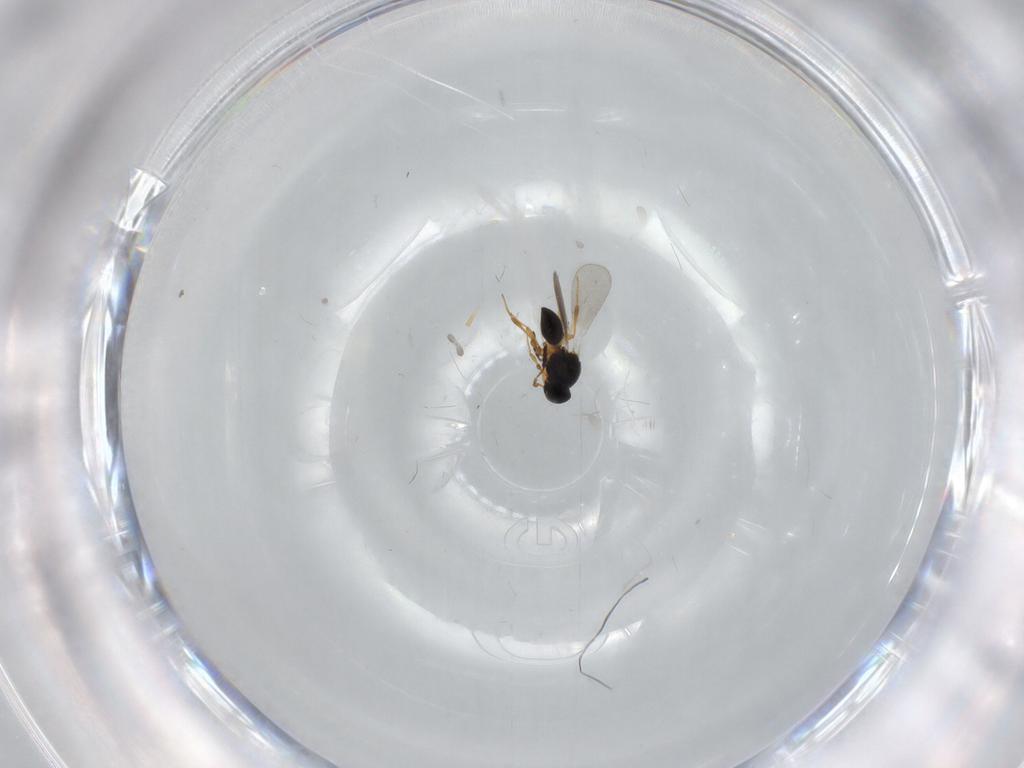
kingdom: Animalia
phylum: Arthropoda
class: Insecta
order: Hymenoptera
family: Platygastridae
